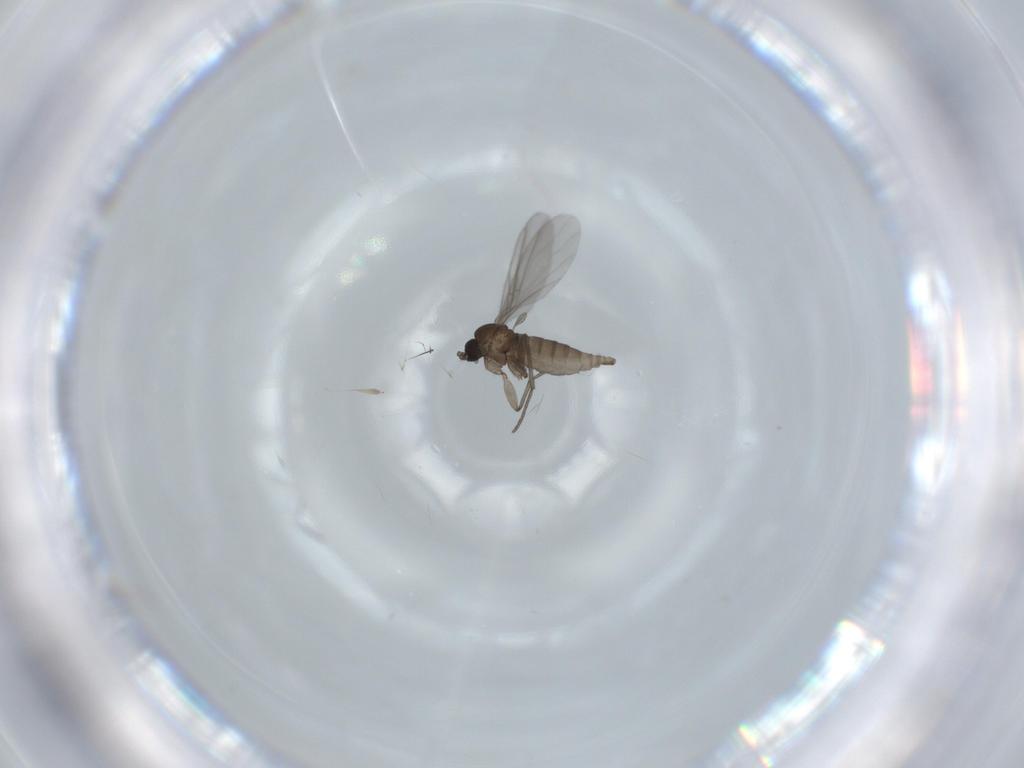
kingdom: Animalia
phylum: Arthropoda
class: Insecta
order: Diptera
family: Sciaridae
